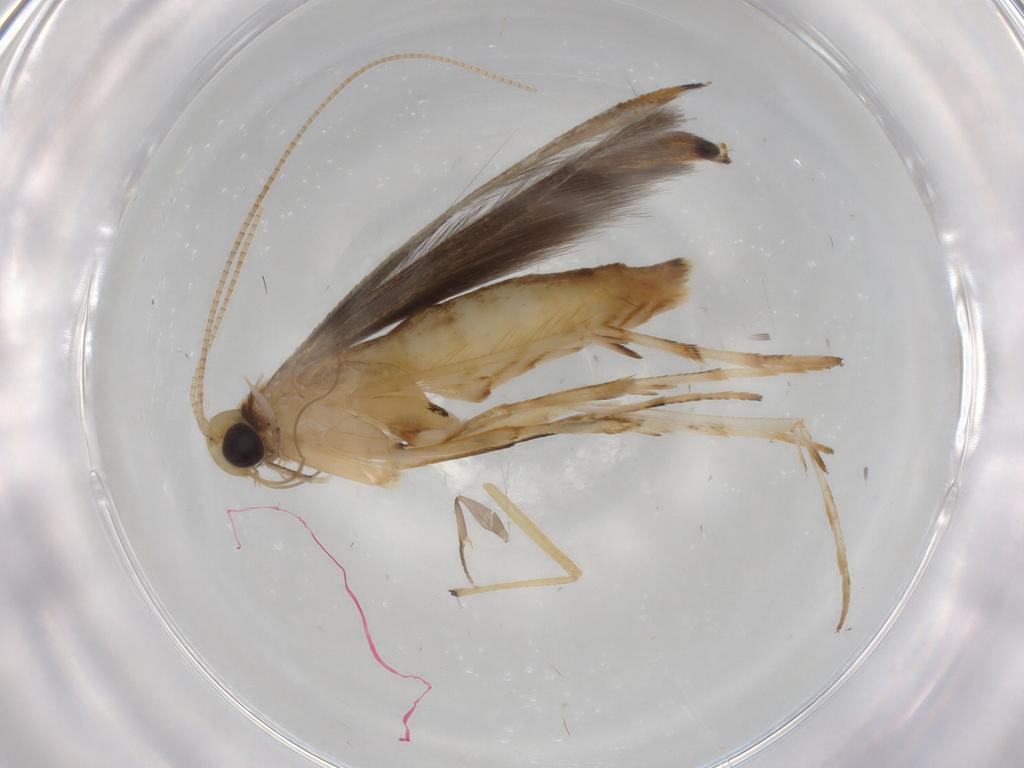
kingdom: Animalia
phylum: Arthropoda
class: Insecta
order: Lepidoptera
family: Gracillariidae
